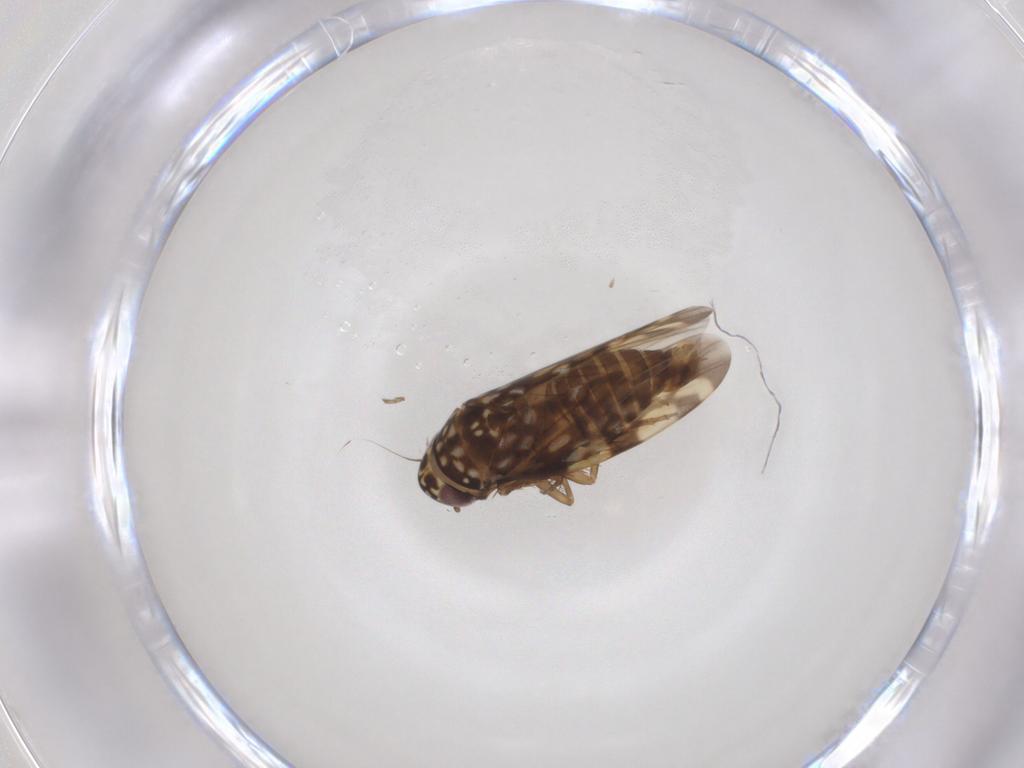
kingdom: Animalia
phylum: Arthropoda
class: Insecta
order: Hemiptera
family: Cicadellidae
